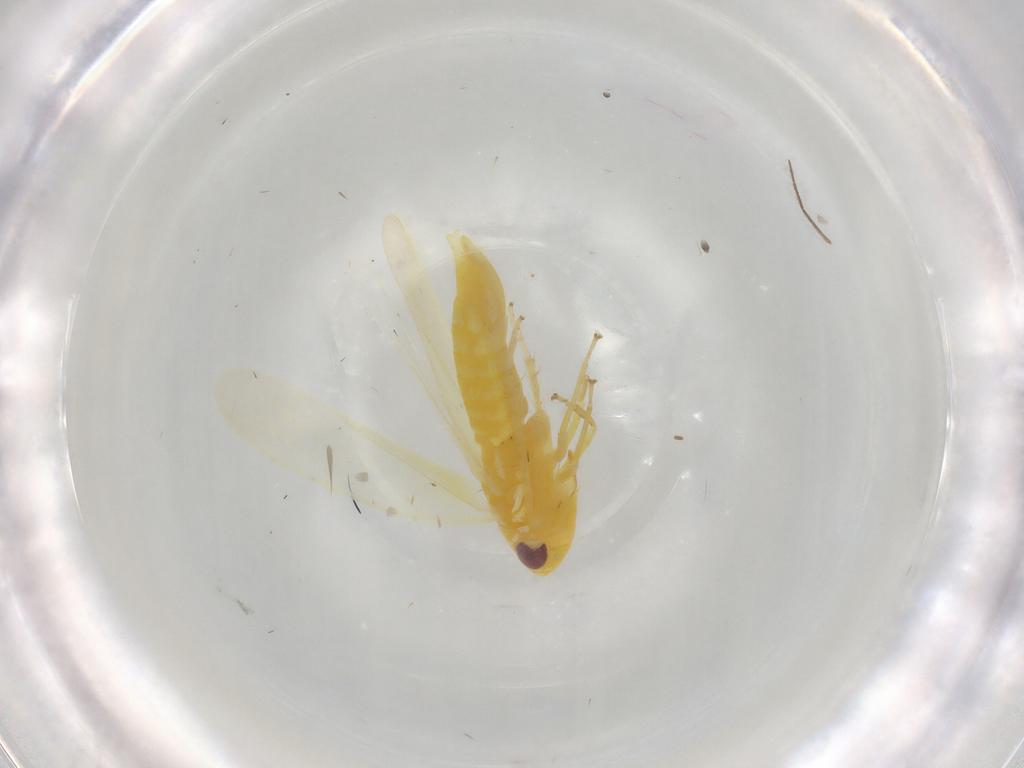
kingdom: Animalia
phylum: Arthropoda
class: Insecta
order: Hemiptera
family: Cicadellidae
